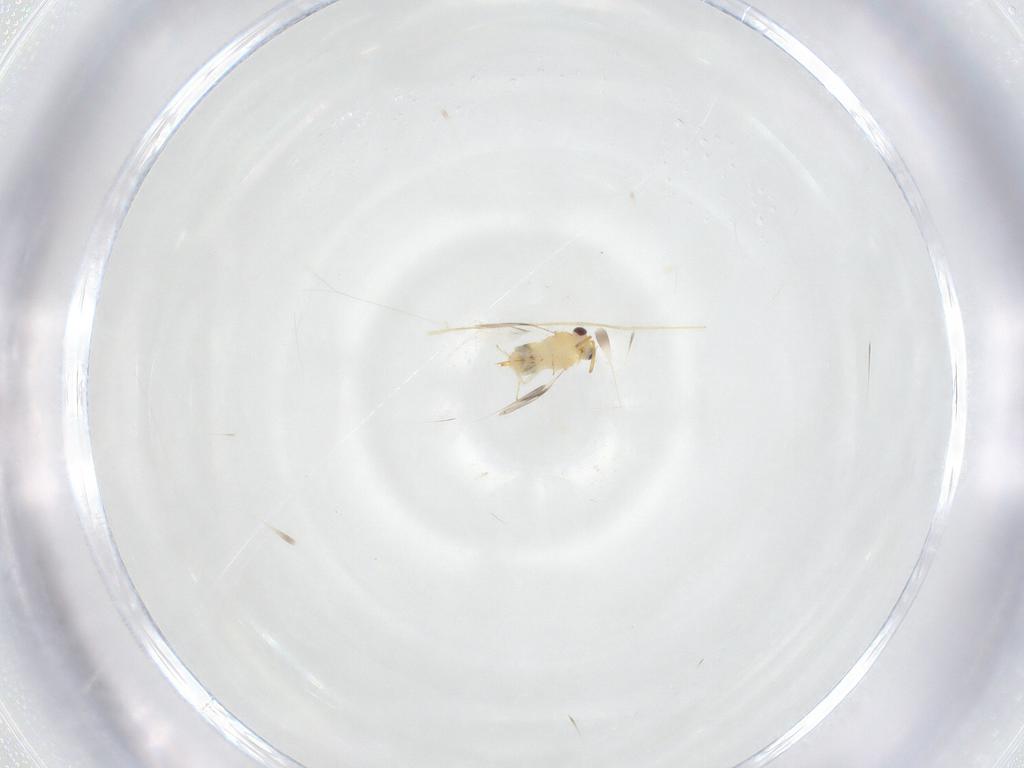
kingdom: Animalia
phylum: Arthropoda
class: Insecta
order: Hymenoptera
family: Aphelinidae
